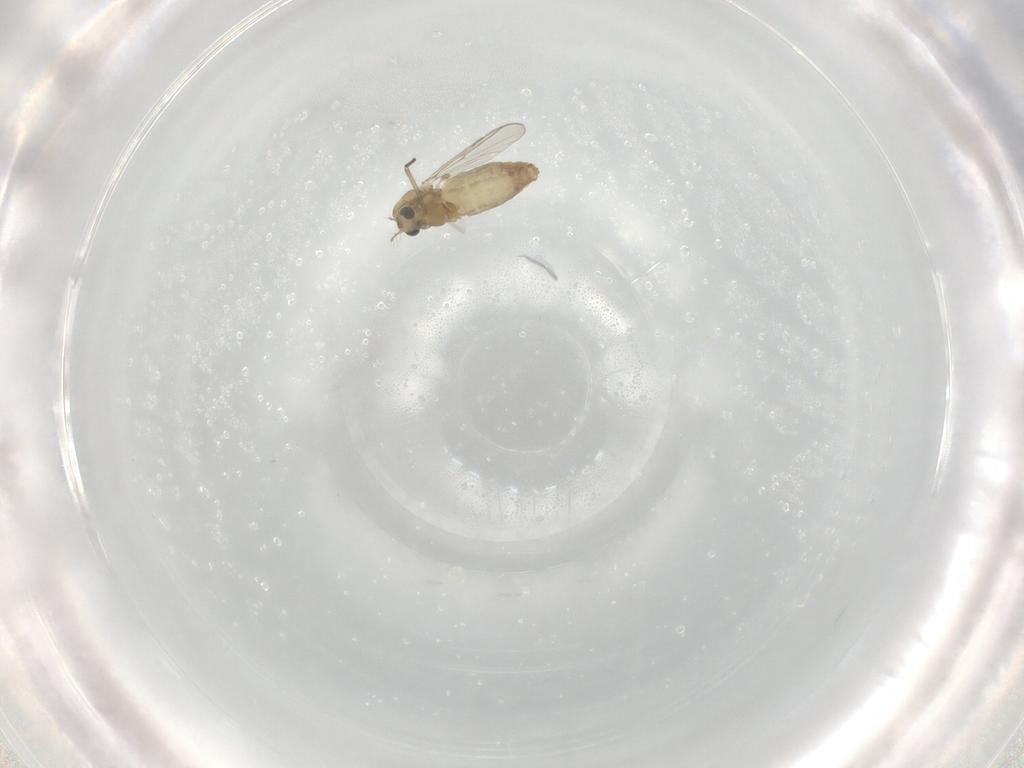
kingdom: Animalia
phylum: Arthropoda
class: Insecta
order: Diptera
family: Chironomidae
